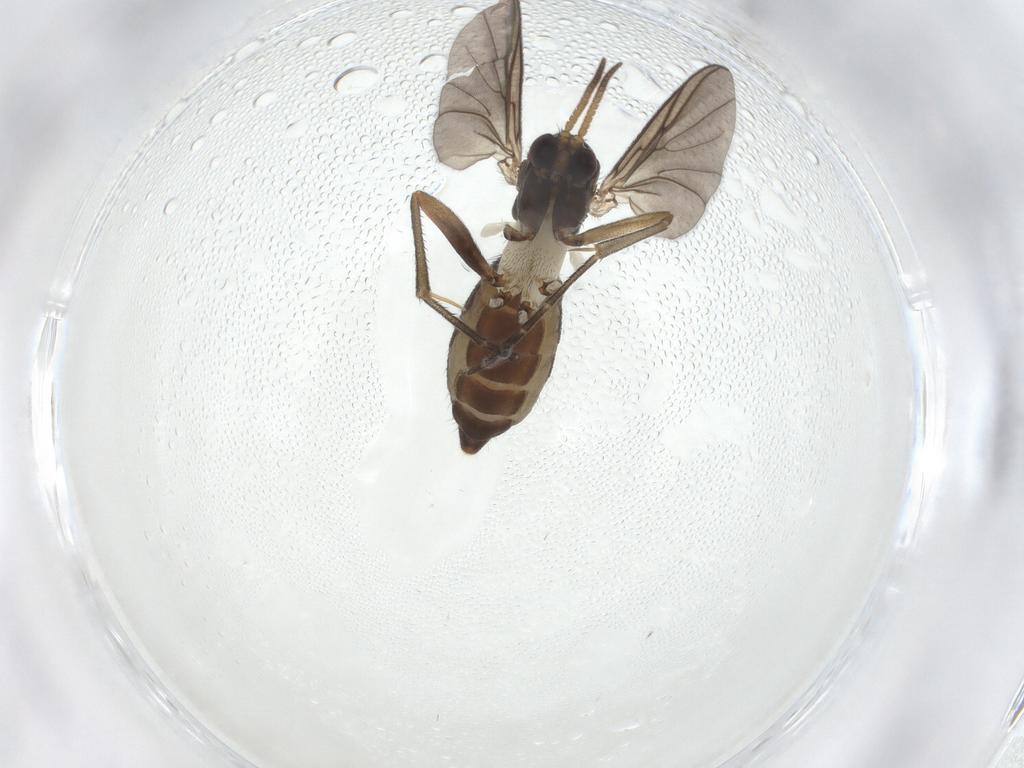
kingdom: Animalia
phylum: Arthropoda
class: Insecta
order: Diptera
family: Mycetophilidae
